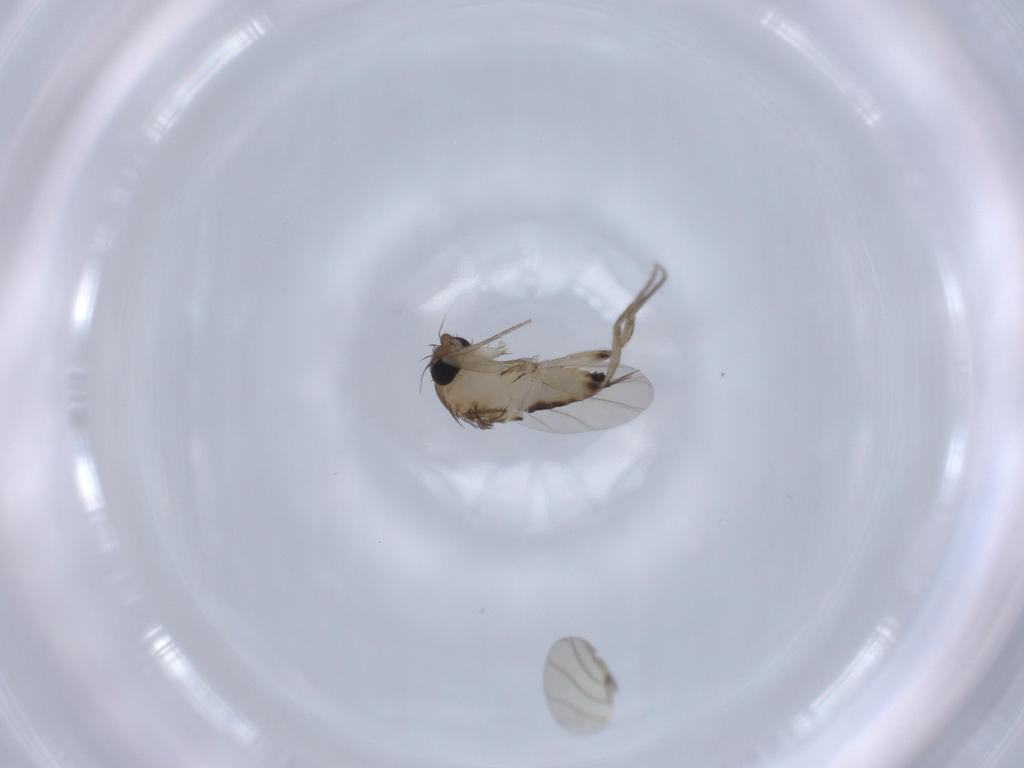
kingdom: Animalia
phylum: Arthropoda
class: Insecta
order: Diptera
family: Phoridae
